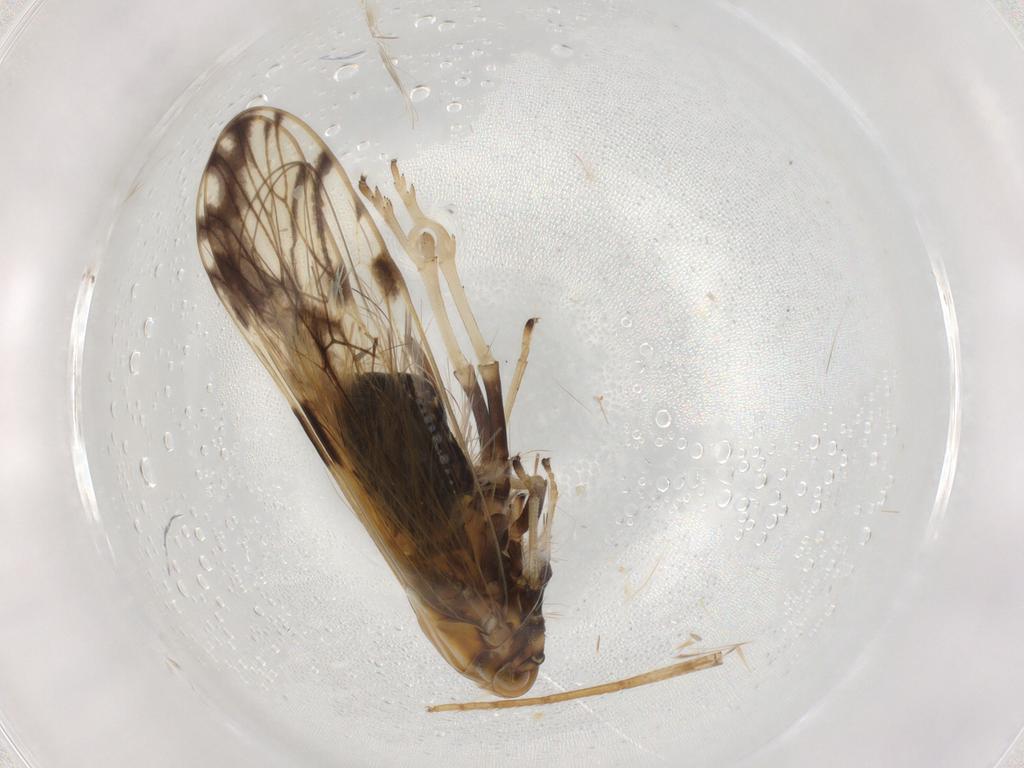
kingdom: Animalia
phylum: Arthropoda
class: Insecta
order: Hemiptera
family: Delphacidae
